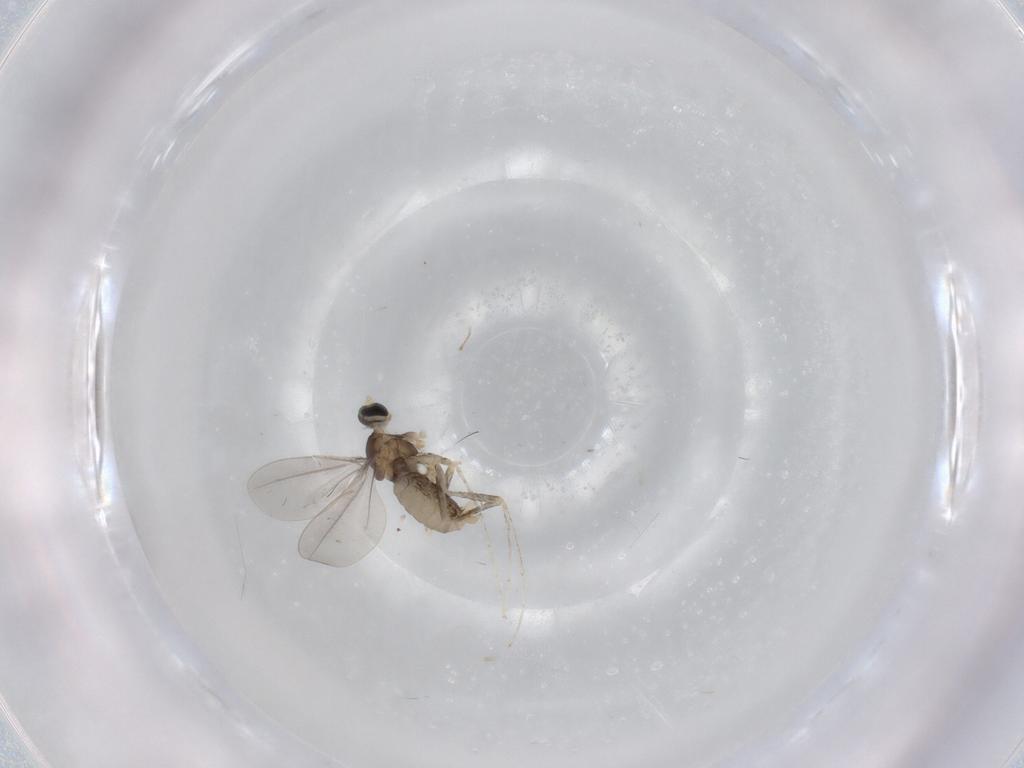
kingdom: Animalia
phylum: Arthropoda
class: Insecta
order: Diptera
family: Cecidomyiidae
